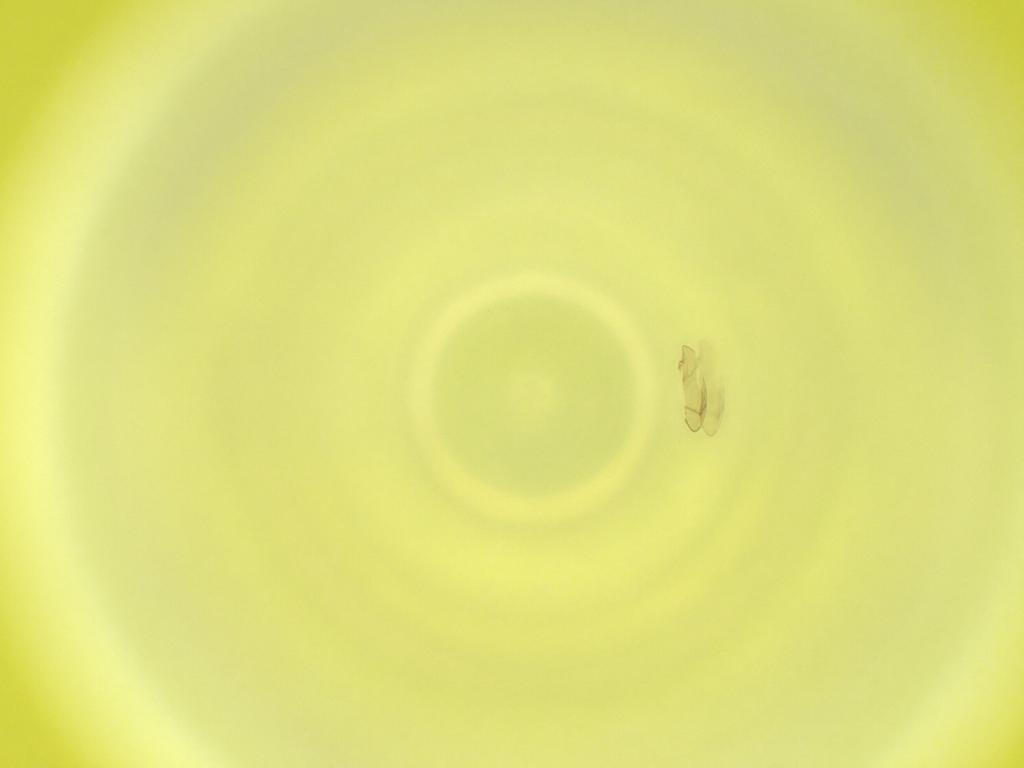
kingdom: Animalia
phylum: Arthropoda
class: Insecta
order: Diptera
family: Cecidomyiidae
